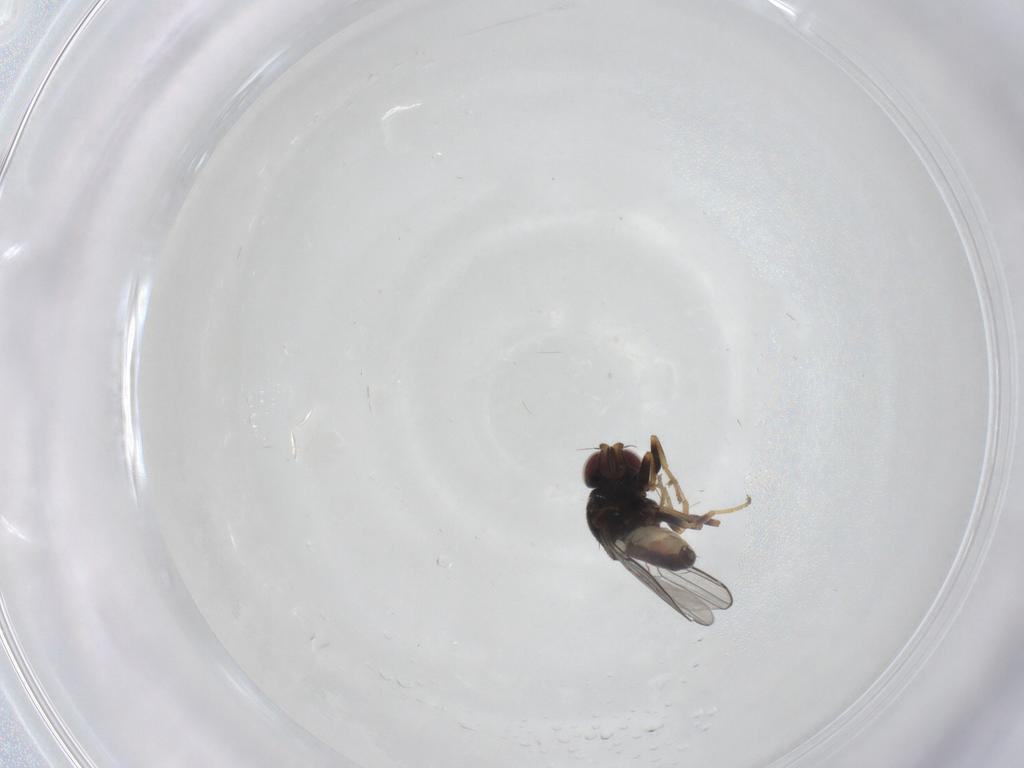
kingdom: Animalia
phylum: Arthropoda
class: Insecta
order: Diptera
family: Chloropidae
